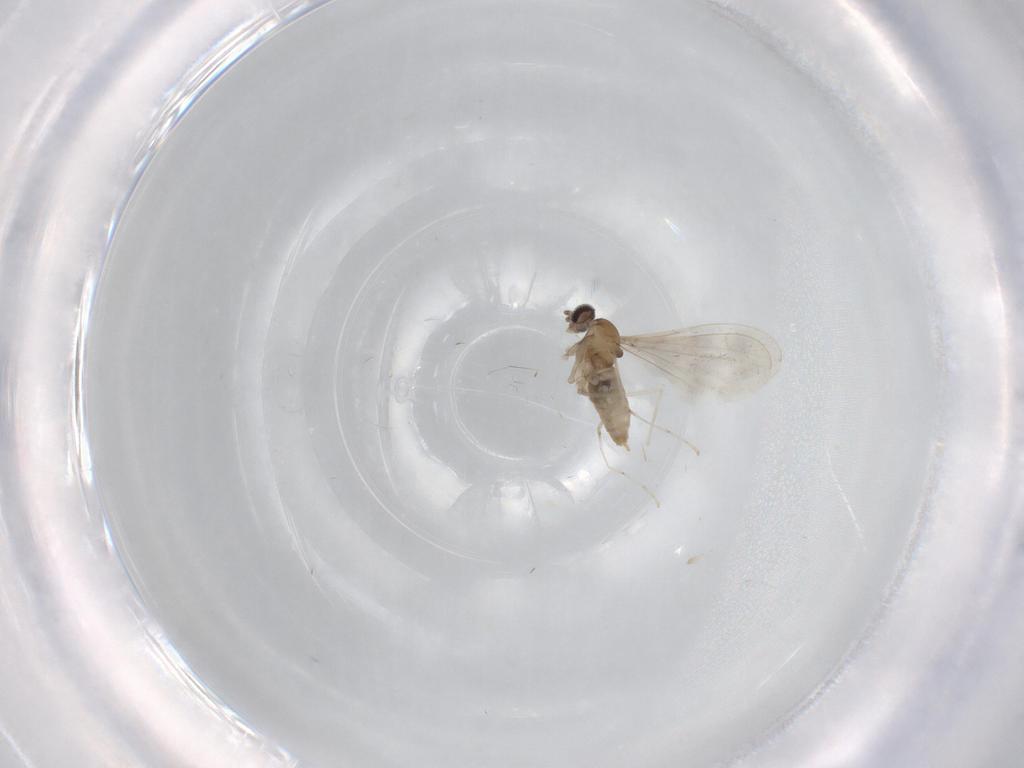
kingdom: Animalia
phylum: Arthropoda
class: Insecta
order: Diptera
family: Cecidomyiidae
